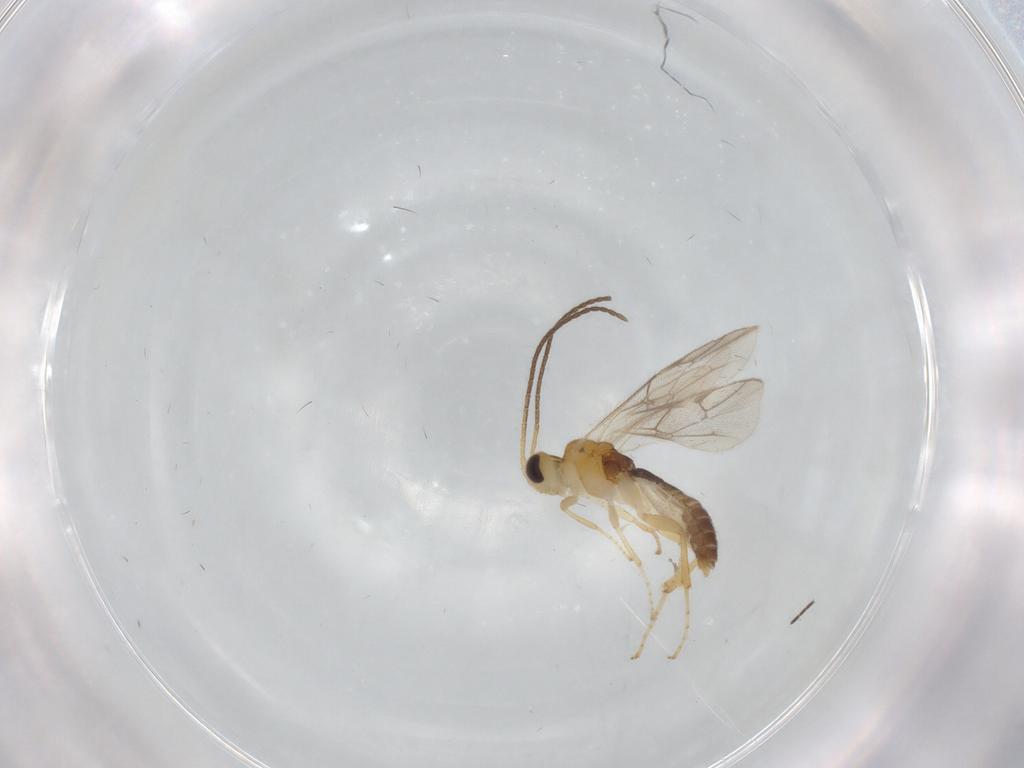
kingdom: Animalia
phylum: Arthropoda
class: Insecta
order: Hymenoptera
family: Ichneumonidae
